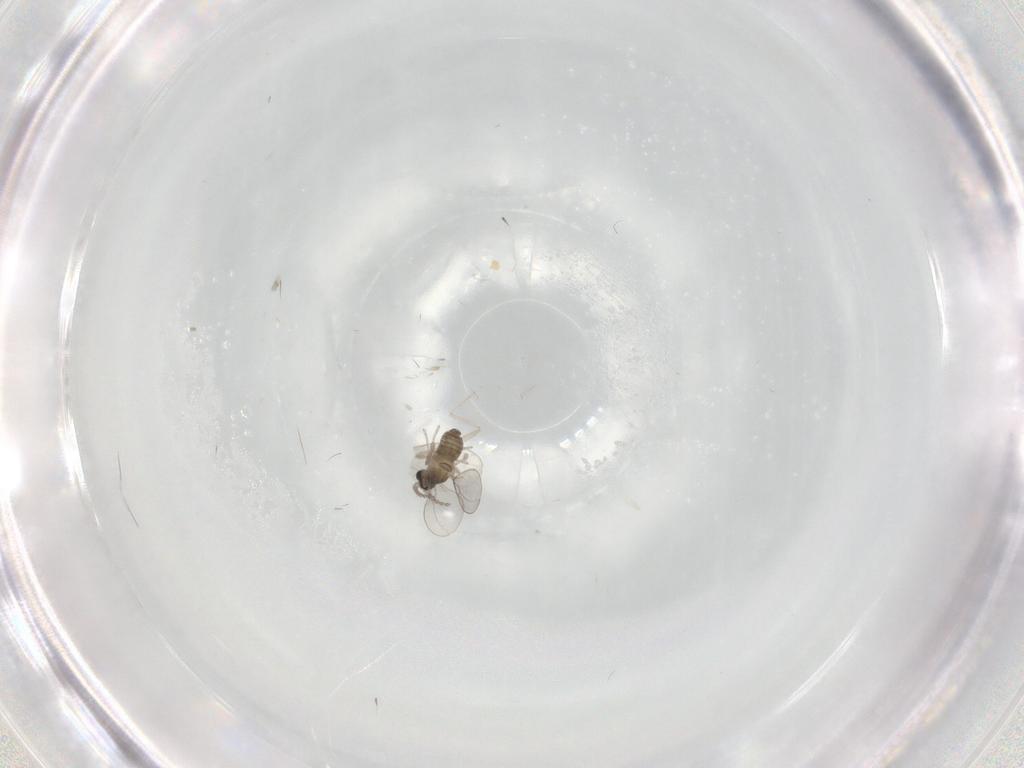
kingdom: Animalia
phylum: Arthropoda
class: Insecta
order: Diptera
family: Cecidomyiidae
